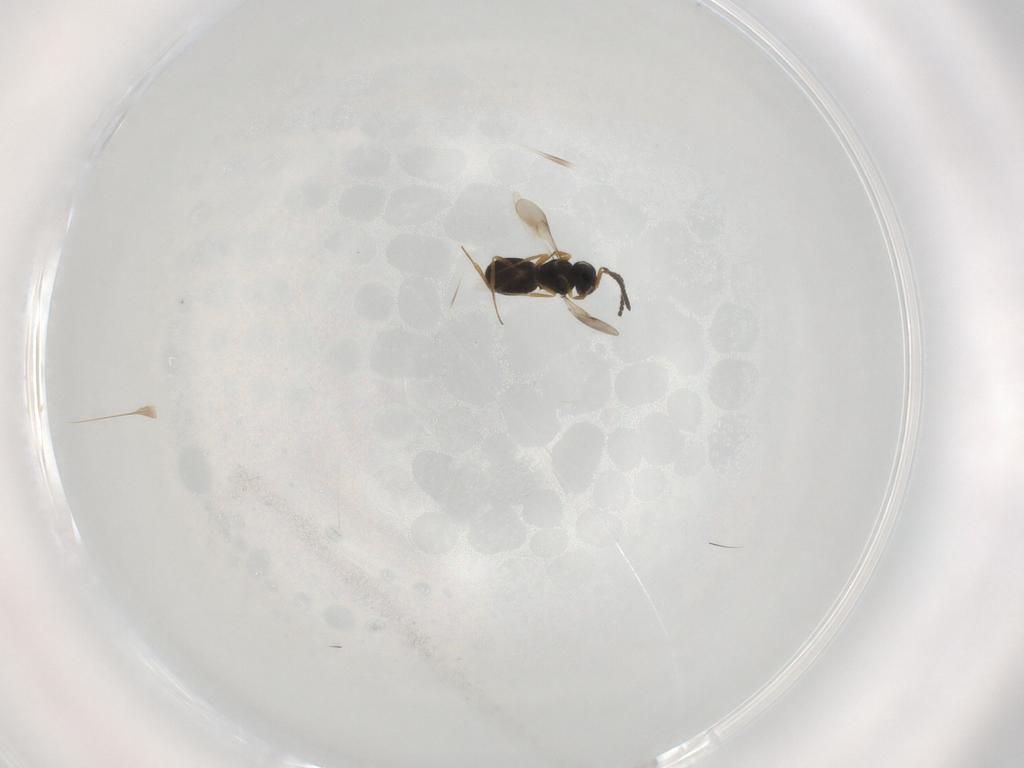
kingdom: Animalia
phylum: Arthropoda
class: Insecta
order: Hymenoptera
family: Scelionidae
